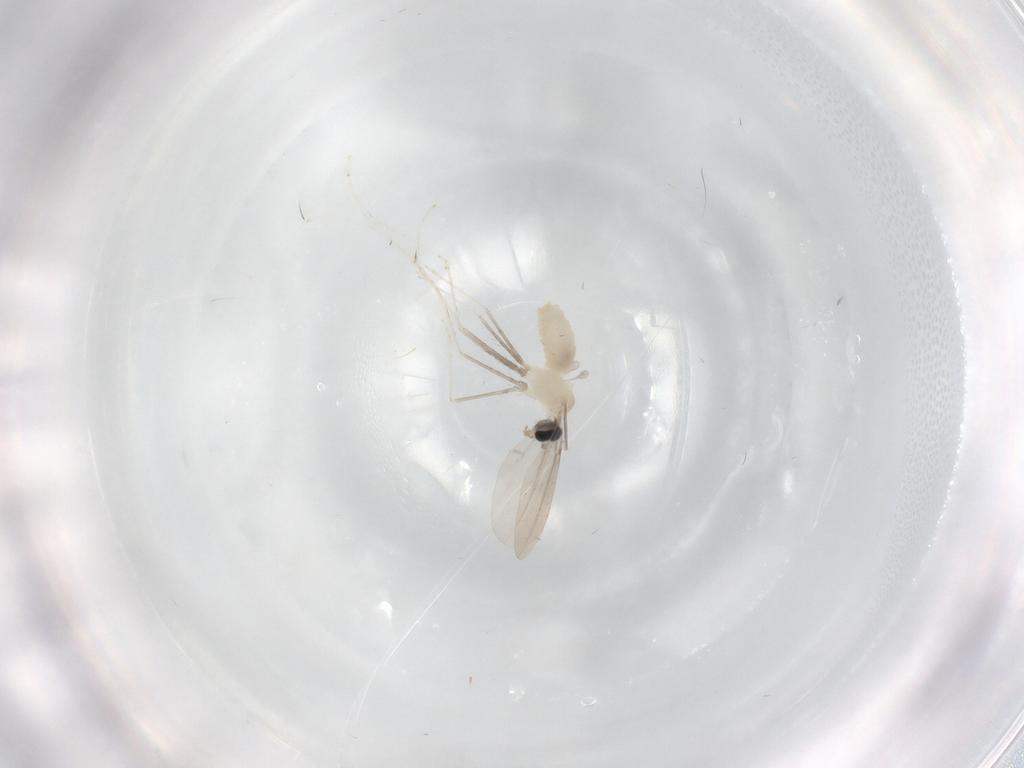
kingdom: Animalia
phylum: Arthropoda
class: Insecta
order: Diptera
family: Cecidomyiidae
